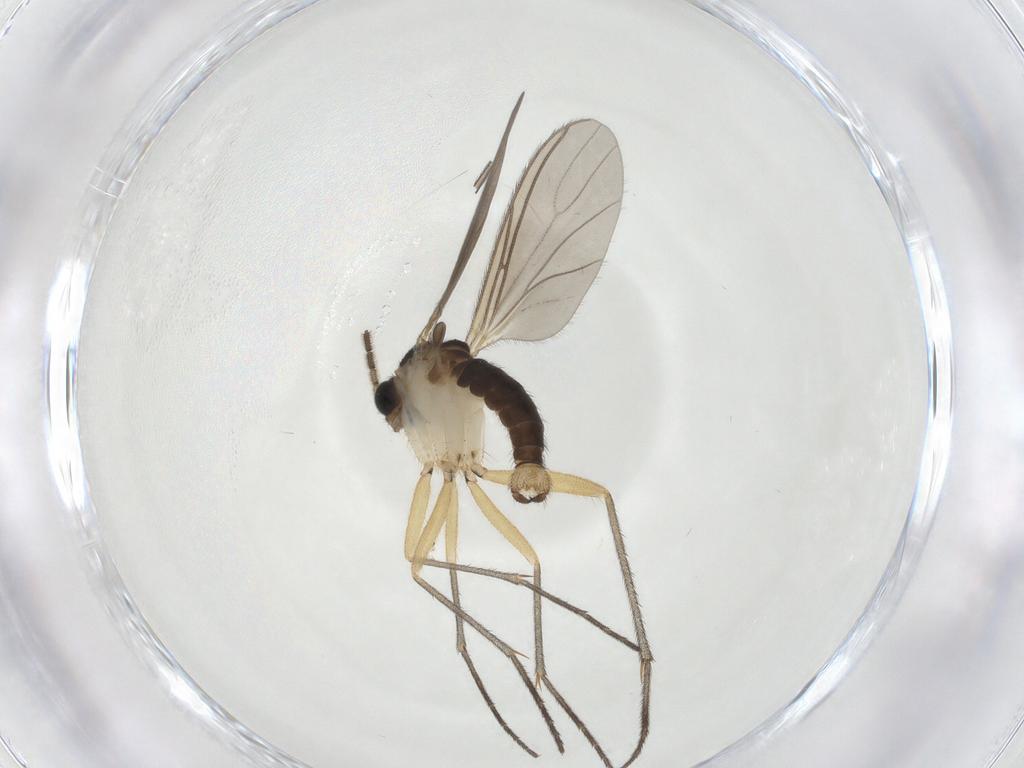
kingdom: Animalia
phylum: Arthropoda
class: Insecta
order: Diptera
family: Sciaridae
